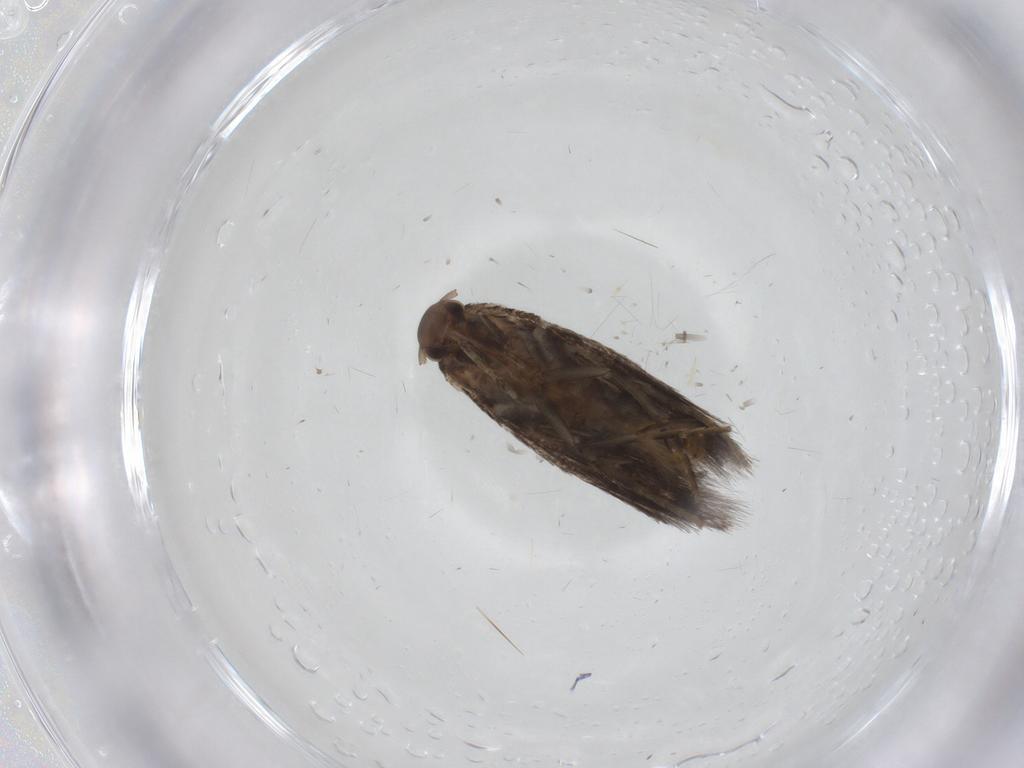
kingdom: Animalia
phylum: Arthropoda
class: Insecta
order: Lepidoptera
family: Elachistidae
